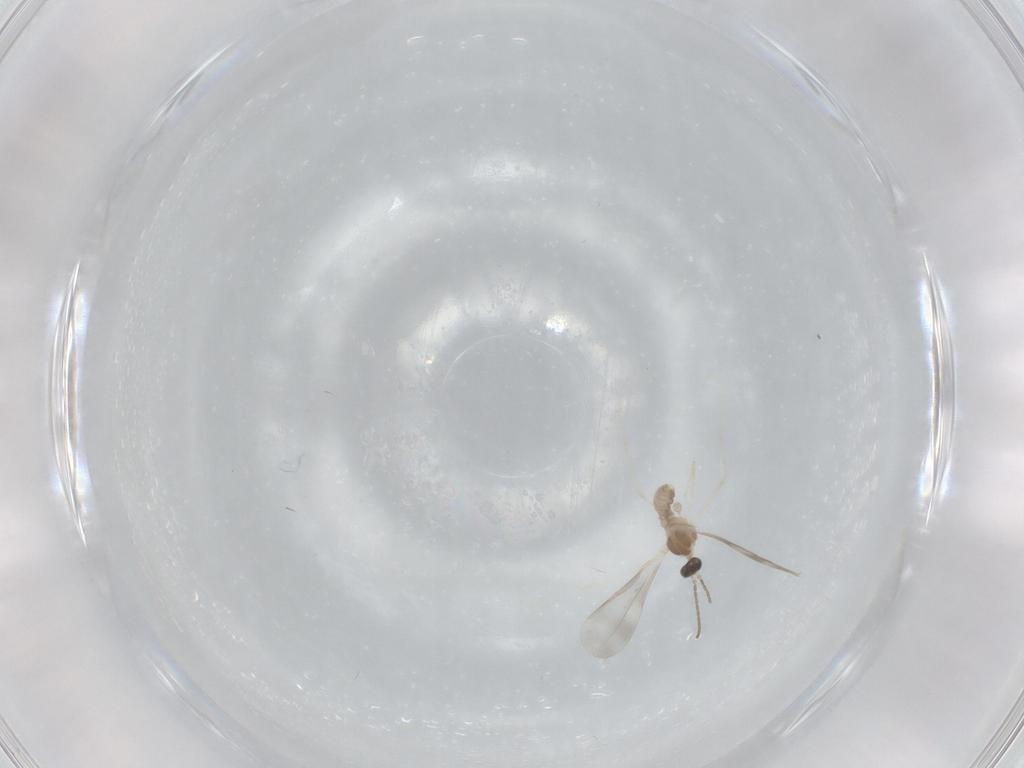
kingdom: Animalia
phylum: Arthropoda
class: Insecta
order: Diptera
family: Cecidomyiidae
